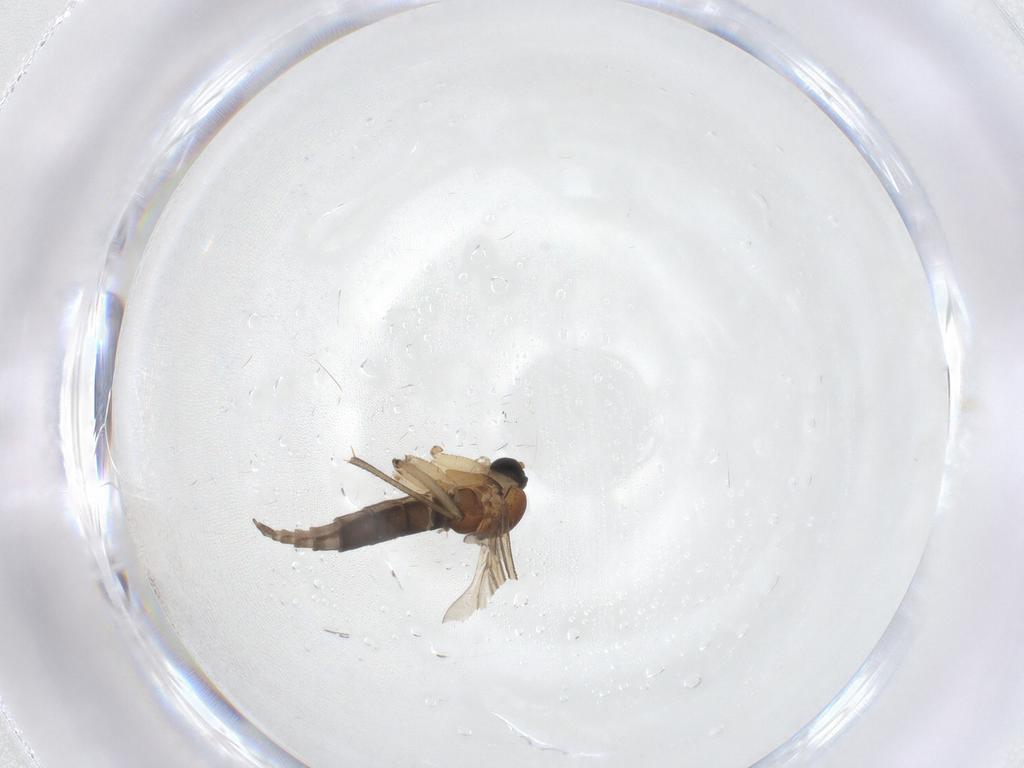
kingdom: Animalia
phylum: Arthropoda
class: Insecta
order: Diptera
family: Sciaridae
